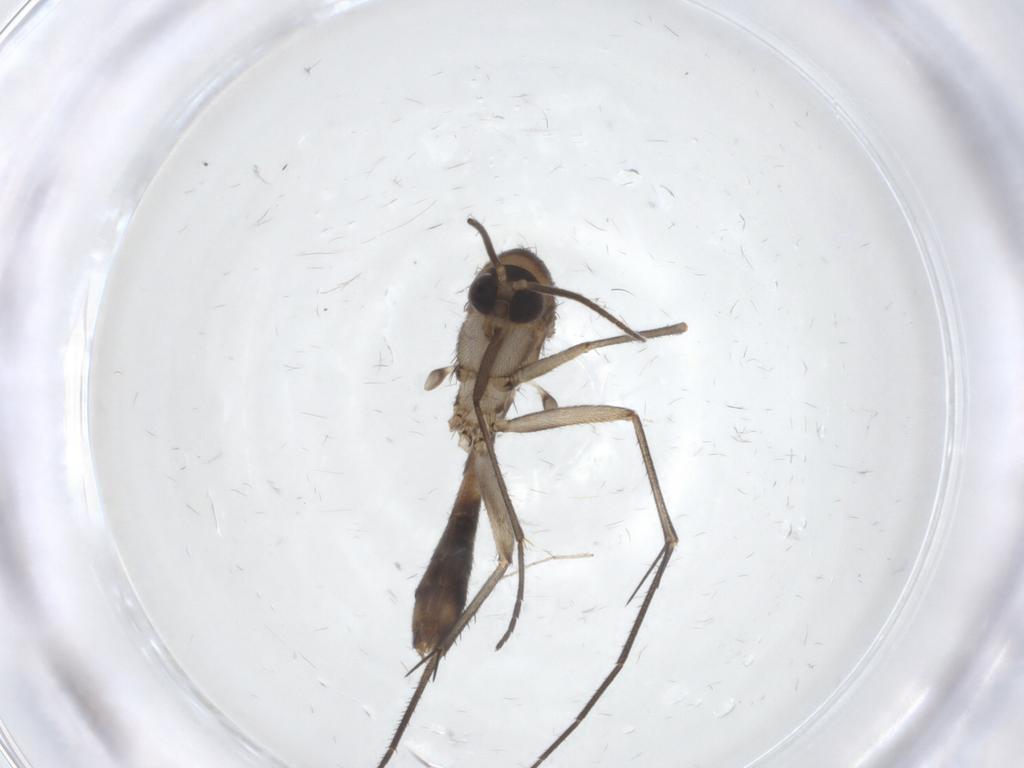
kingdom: Animalia
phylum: Arthropoda
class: Insecta
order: Diptera
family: Mycetophilidae
